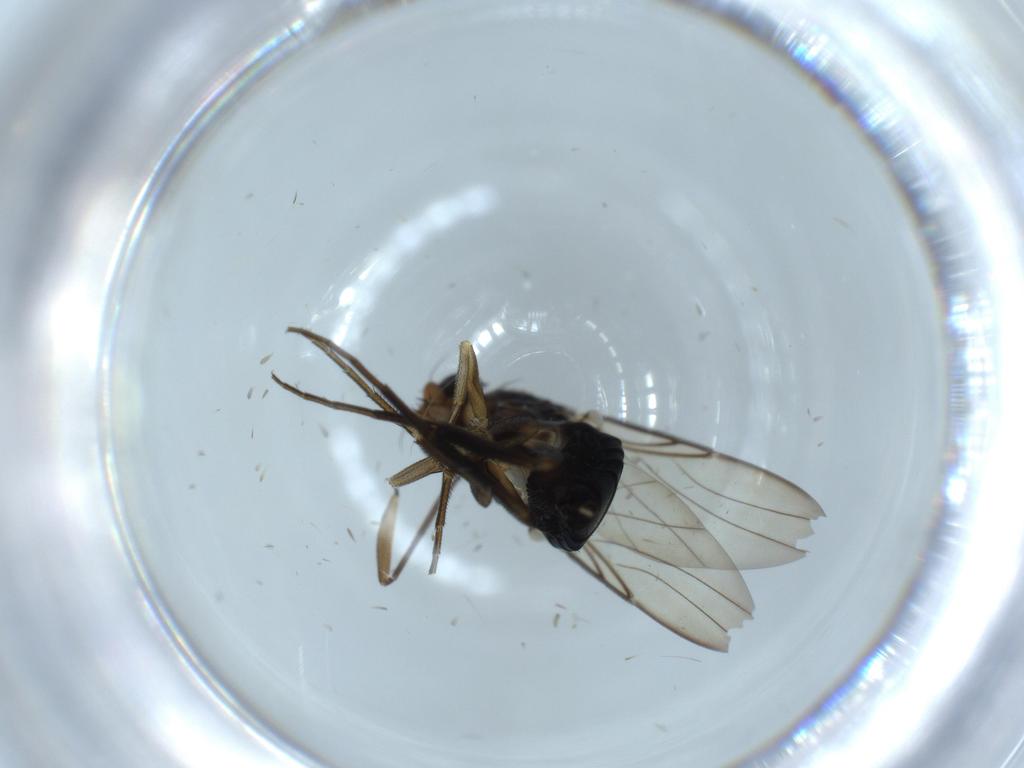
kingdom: Animalia
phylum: Arthropoda
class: Insecta
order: Diptera
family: Phoridae
